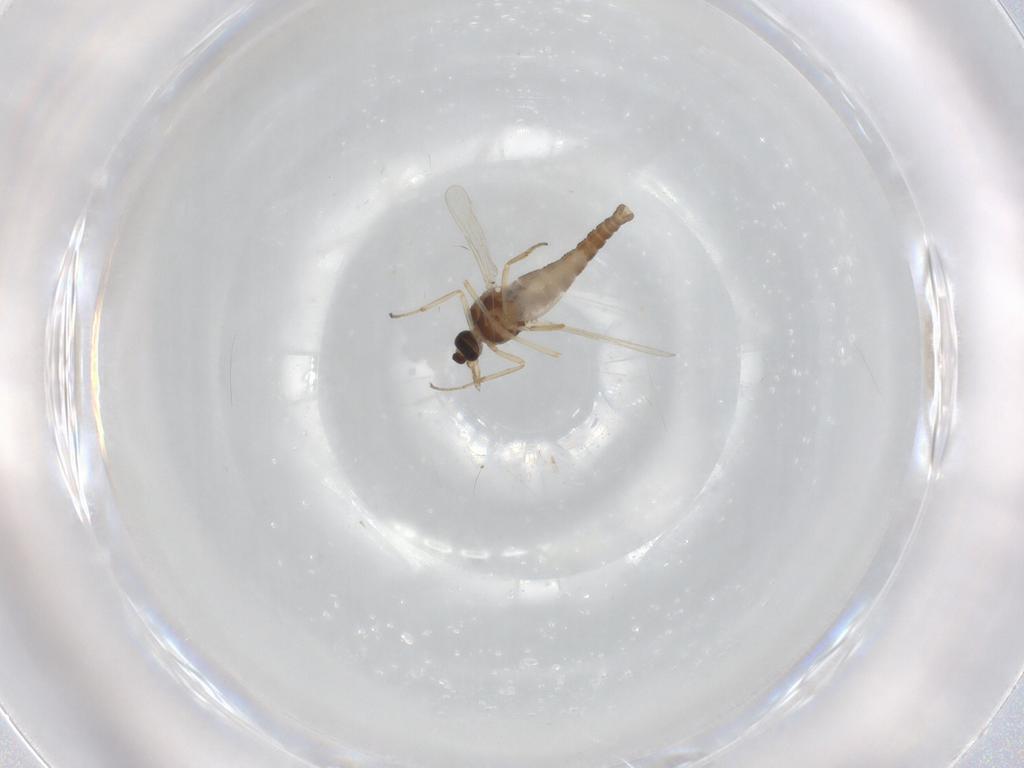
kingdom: Animalia
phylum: Arthropoda
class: Insecta
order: Diptera
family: Ceratopogonidae
